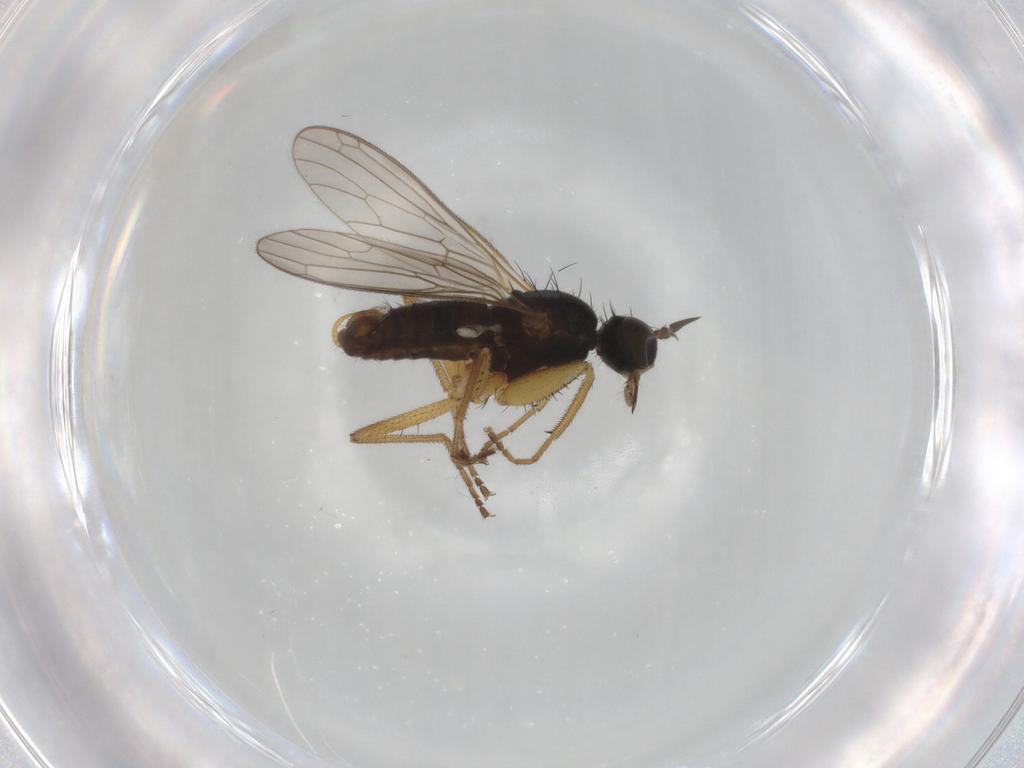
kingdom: Animalia
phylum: Arthropoda
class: Insecta
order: Diptera
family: Empididae
